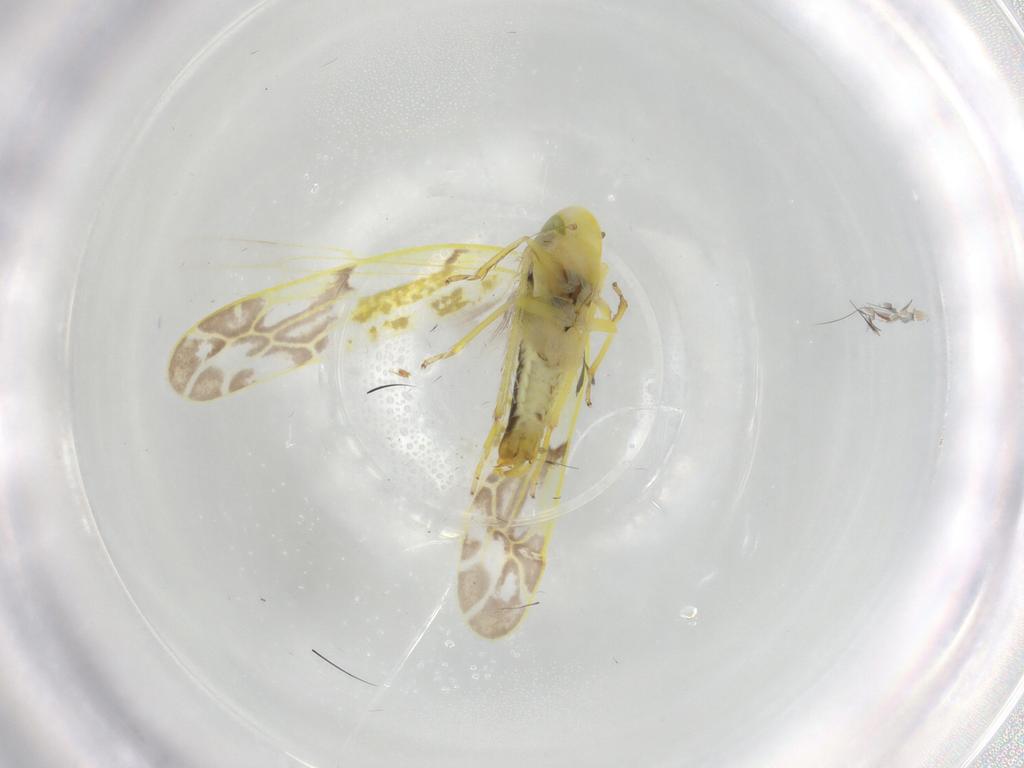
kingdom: Animalia
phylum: Arthropoda
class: Insecta
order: Hemiptera
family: Cicadellidae
